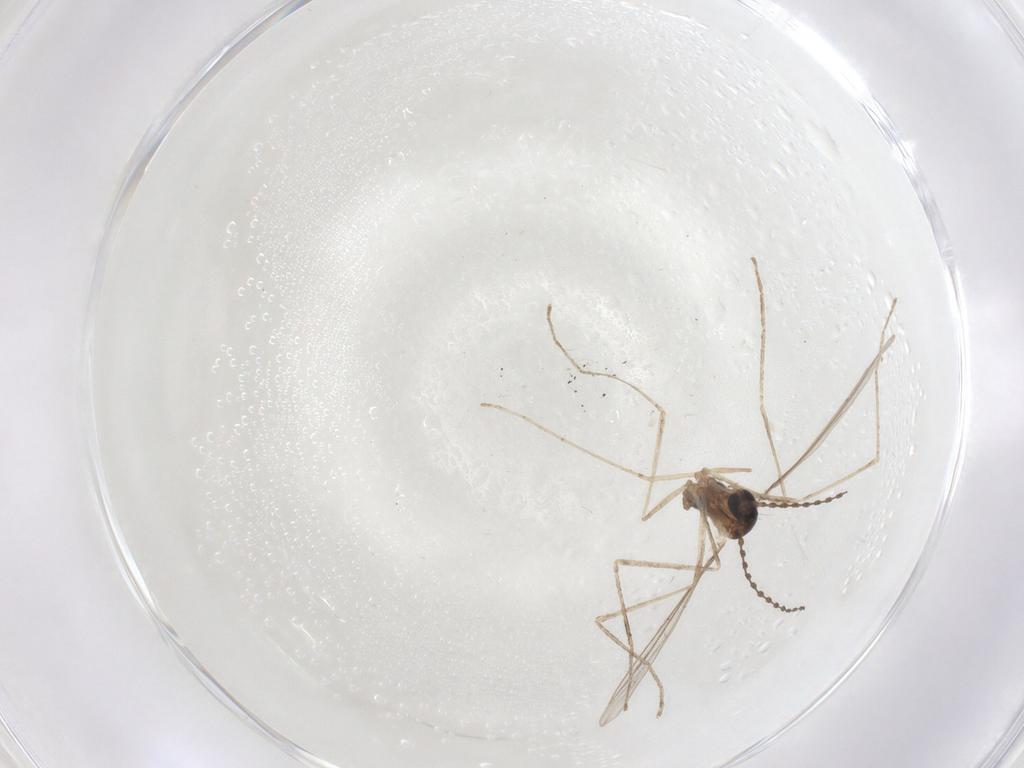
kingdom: Animalia
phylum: Arthropoda
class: Insecta
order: Diptera
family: Cecidomyiidae
